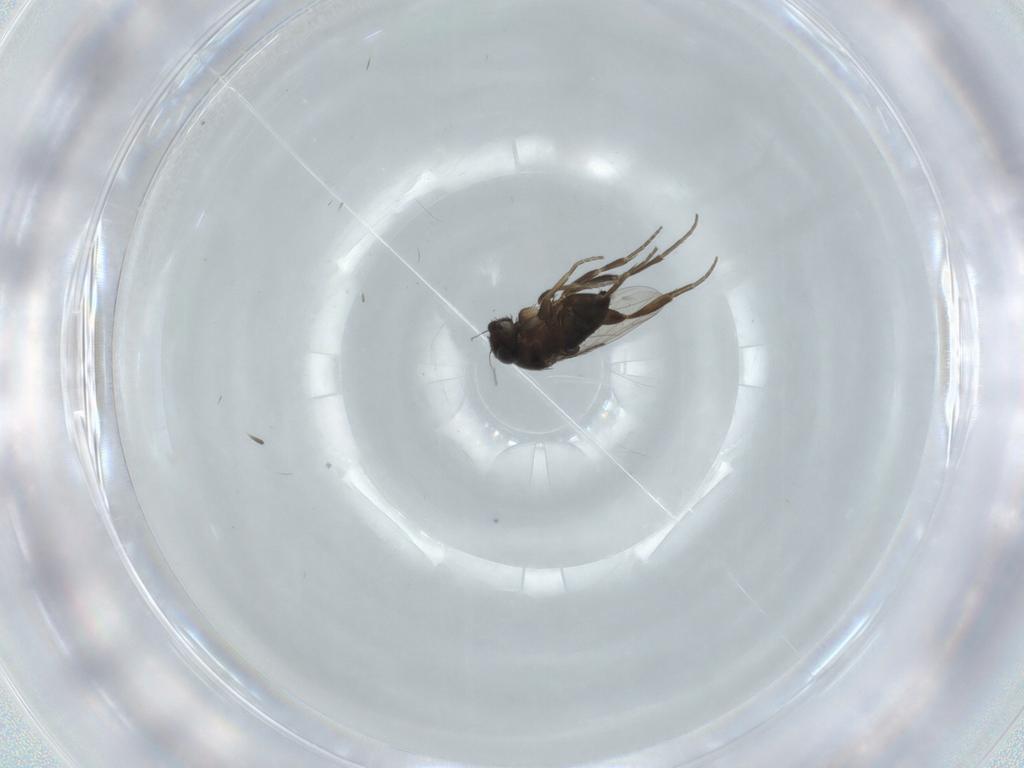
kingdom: Animalia
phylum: Arthropoda
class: Insecta
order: Diptera
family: Phoridae
